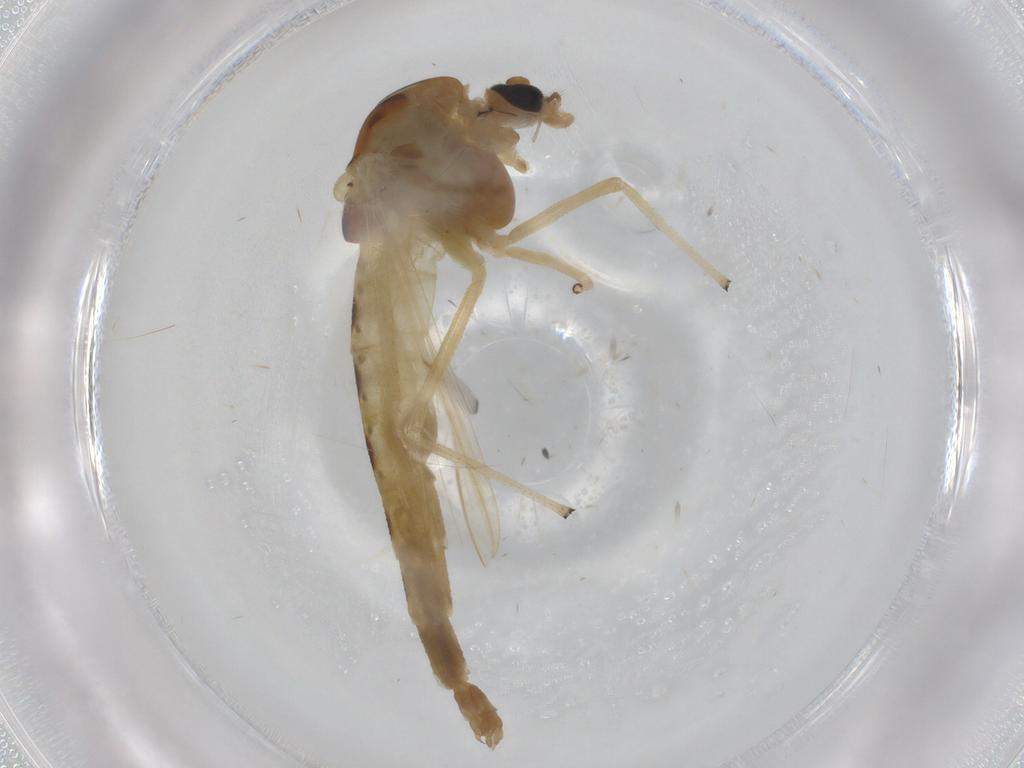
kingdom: Animalia
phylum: Arthropoda
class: Insecta
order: Diptera
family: Chironomidae
